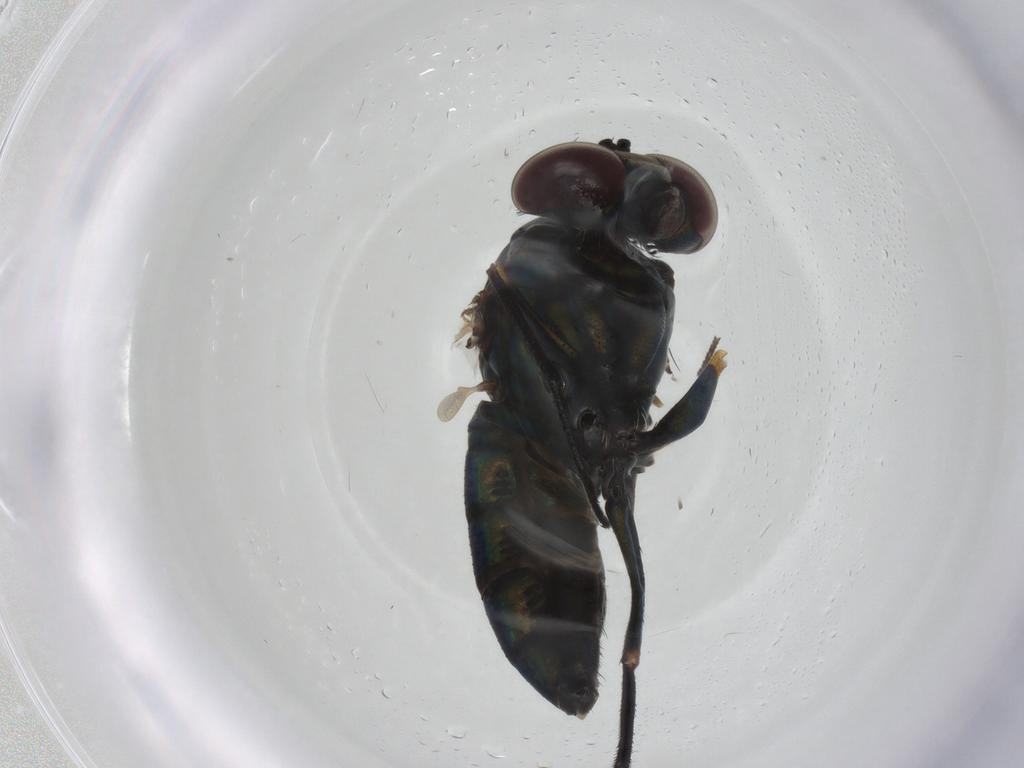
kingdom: Animalia
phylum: Arthropoda
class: Insecta
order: Diptera
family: Dolichopodidae
